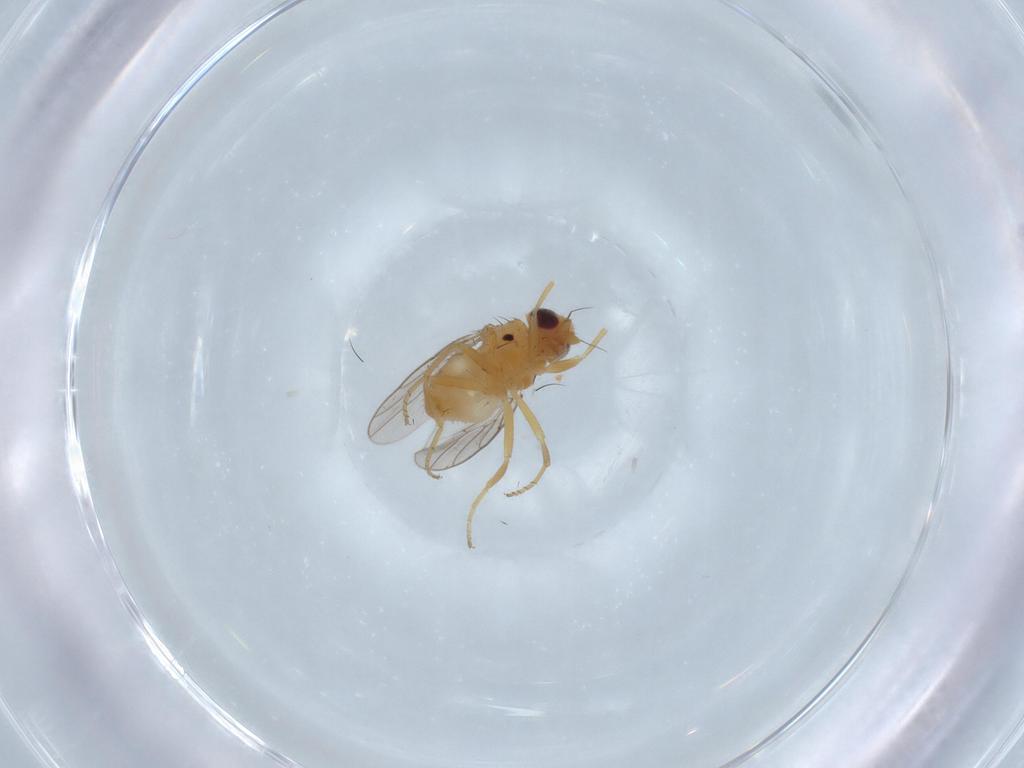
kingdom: Animalia
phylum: Arthropoda
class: Insecta
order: Diptera
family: Chloropidae
